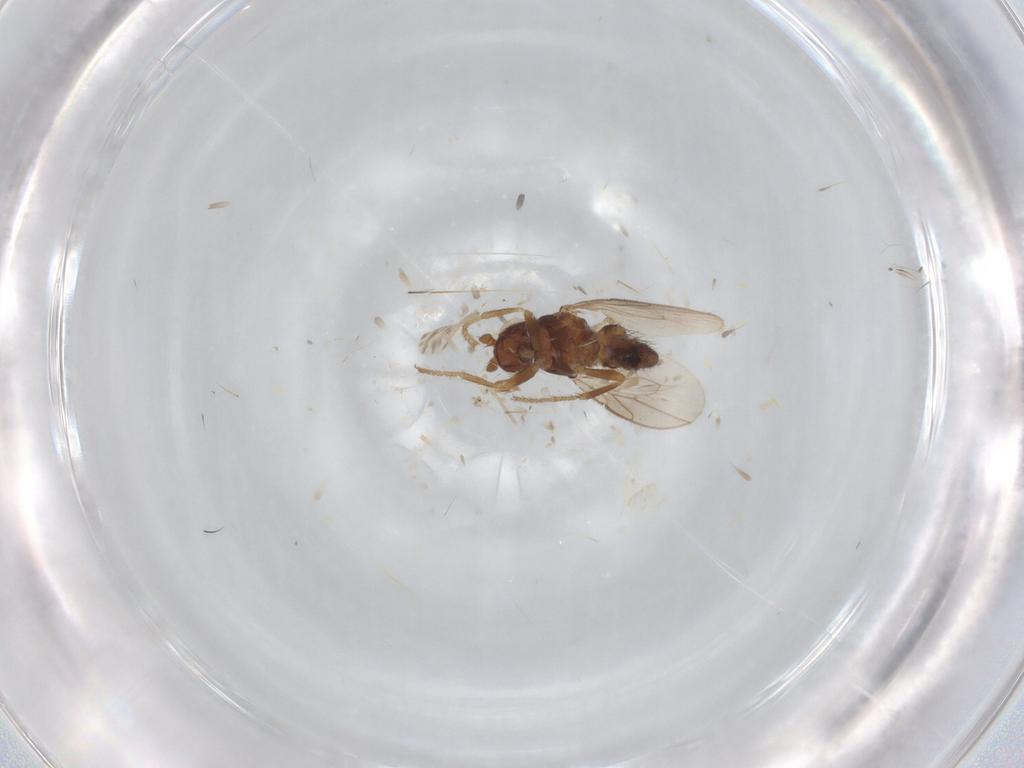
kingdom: Animalia
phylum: Arthropoda
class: Insecta
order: Diptera
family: Sphaeroceridae
